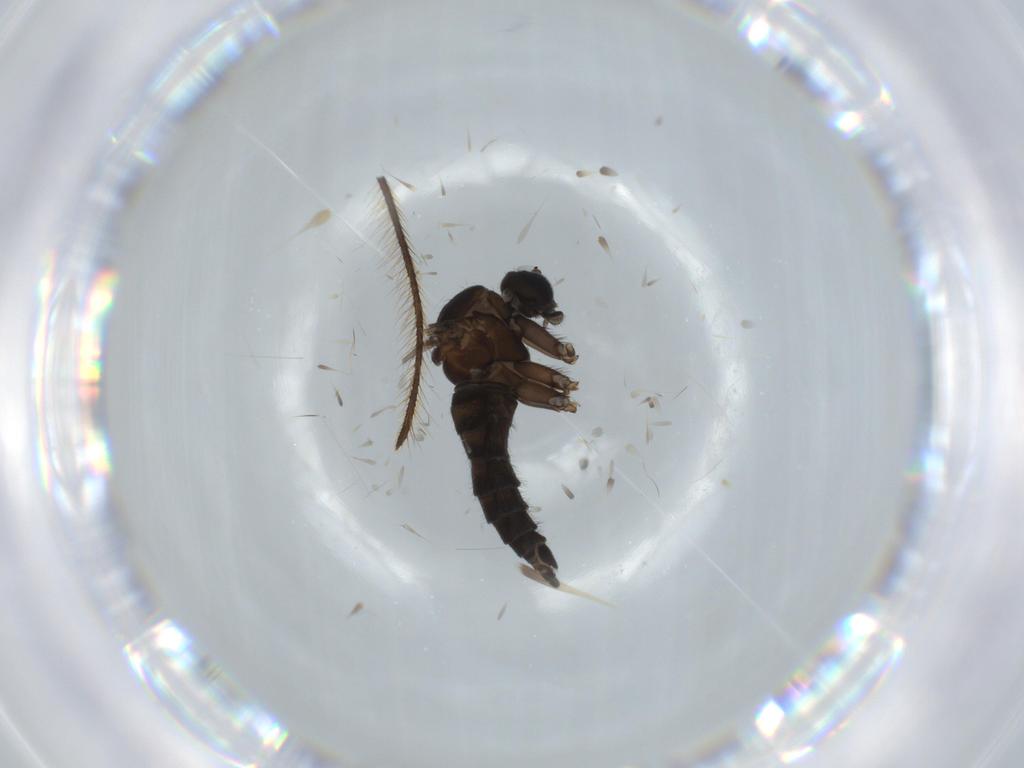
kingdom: Animalia
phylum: Arthropoda
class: Insecta
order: Diptera
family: Sciaridae
